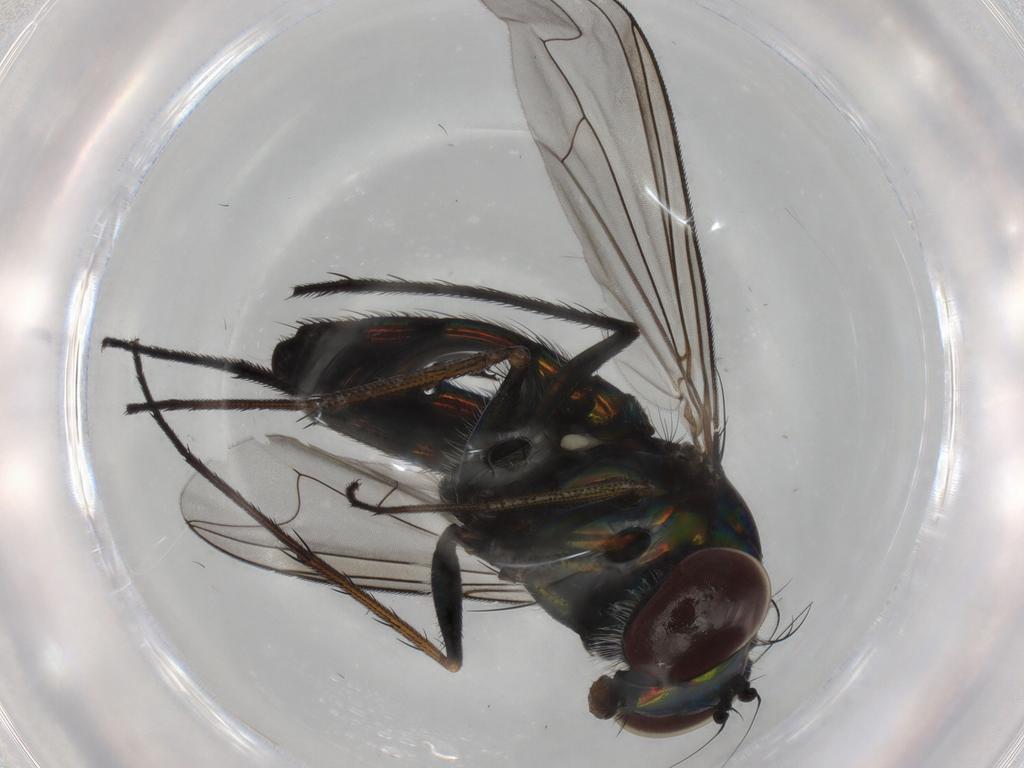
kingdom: Animalia
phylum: Arthropoda
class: Insecta
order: Diptera
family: Dolichopodidae
